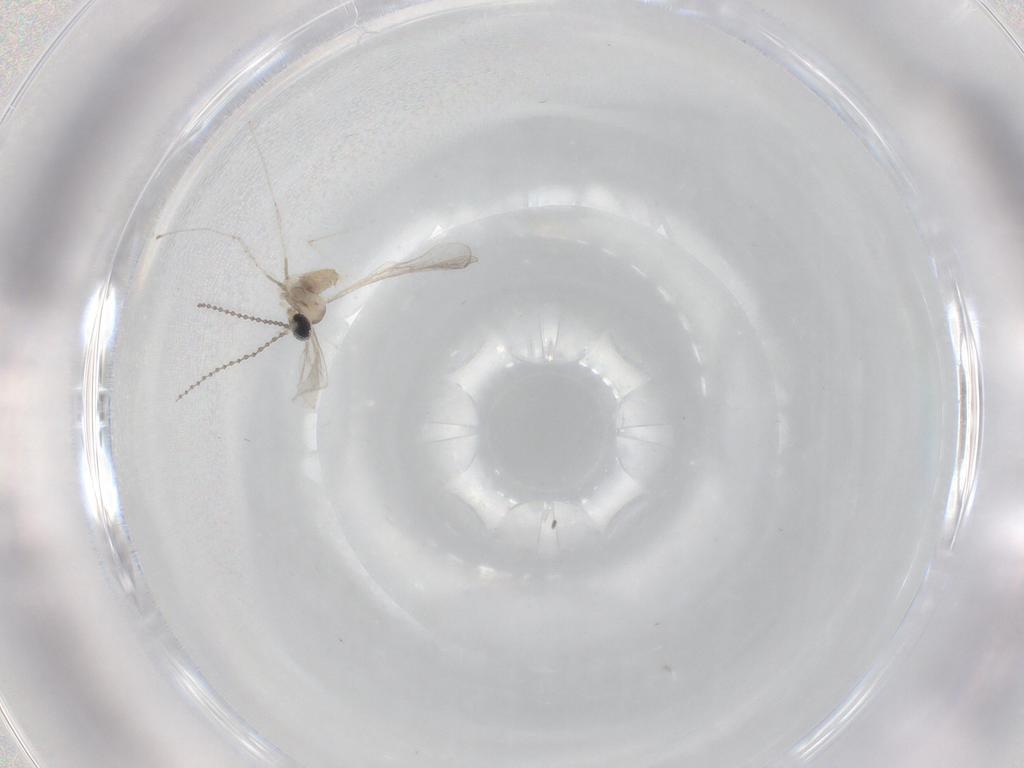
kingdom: Animalia
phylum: Arthropoda
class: Insecta
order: Diptera
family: Cecidomyiidae
